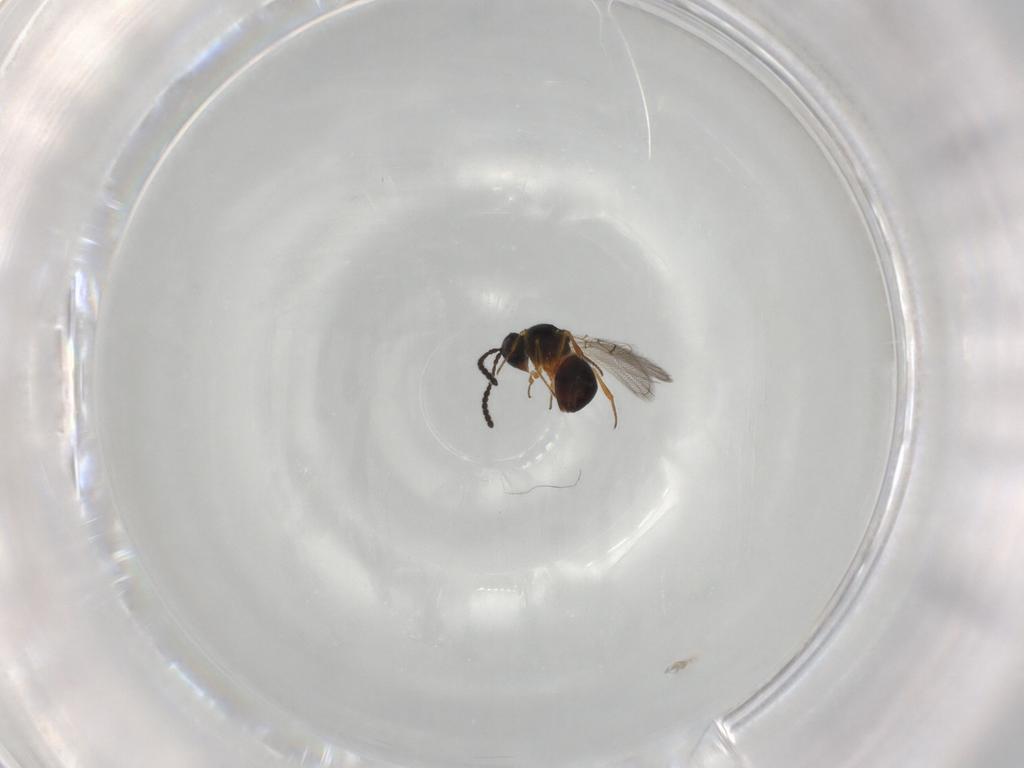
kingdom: Animalia
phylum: Arthropoda
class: Insecta
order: Hymenoptera
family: Figitidae
